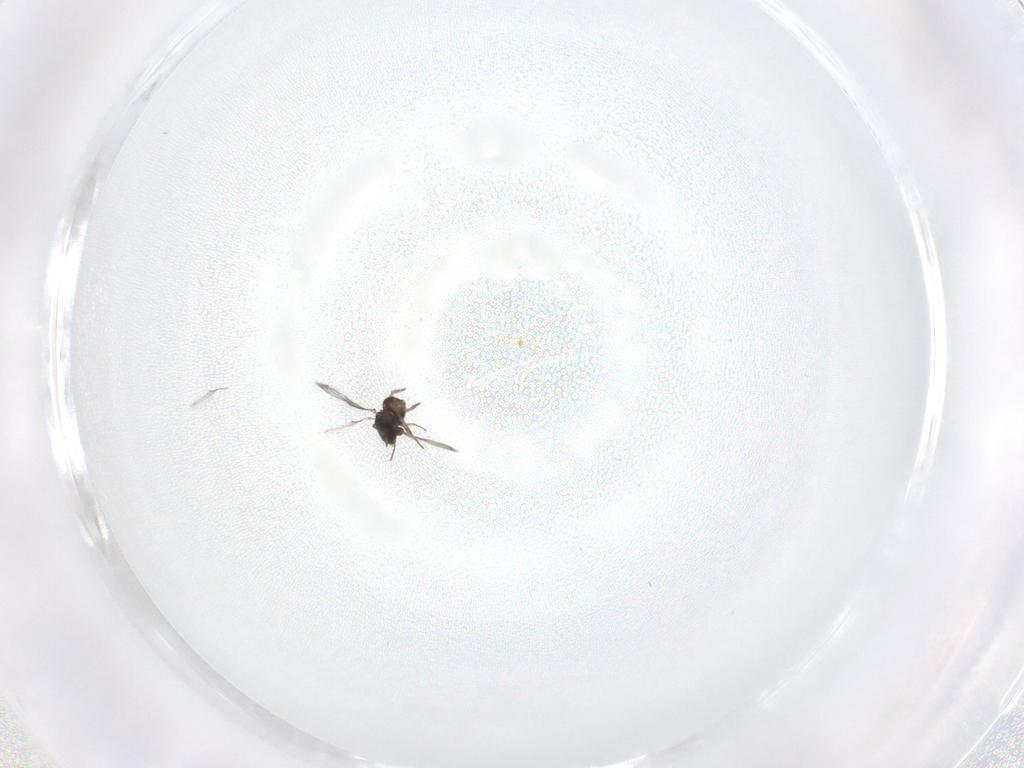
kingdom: Animalia
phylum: Arthropoda
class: Insecta
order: Hymenoptera
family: Trichogrammatidae
